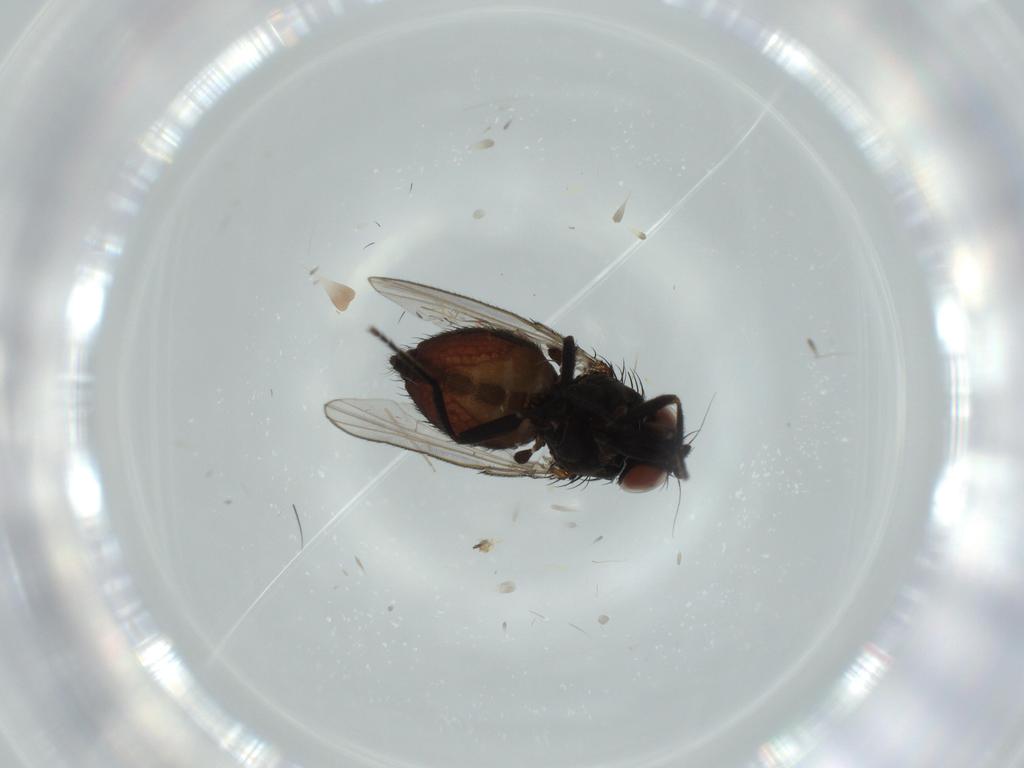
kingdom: Animalia
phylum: Arthropoda
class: Insecta
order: Diptera
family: Milichiidae
